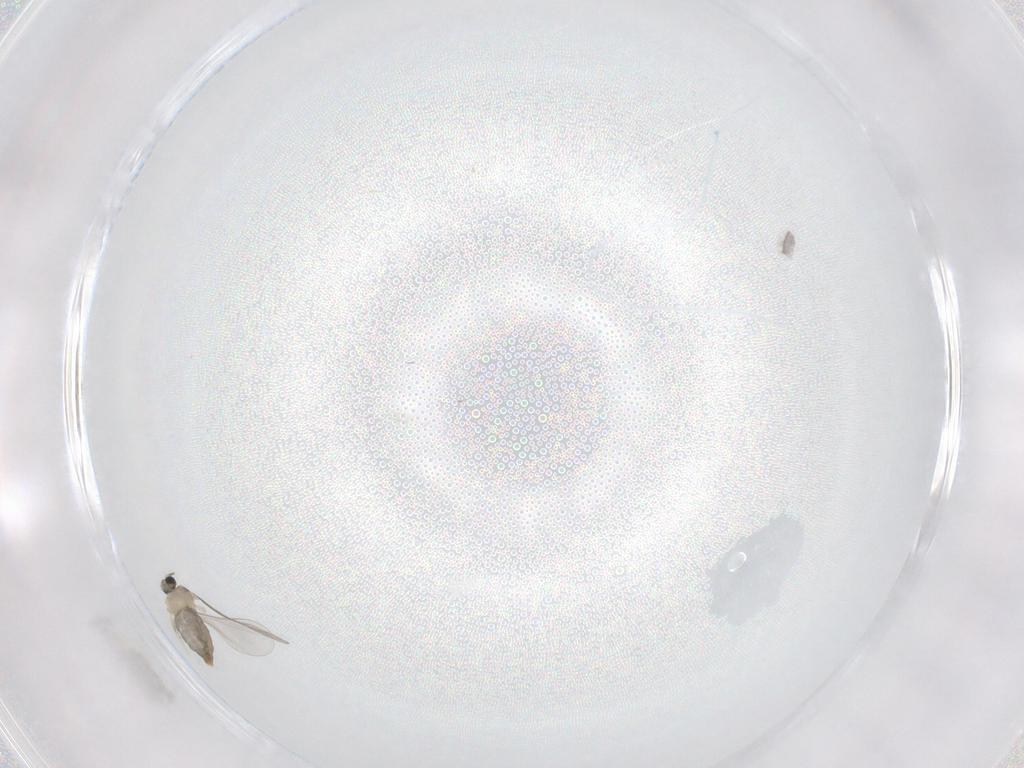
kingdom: Animalia
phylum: Arthropoda
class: Insecta
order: Diptera
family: Cecidomyiidae
